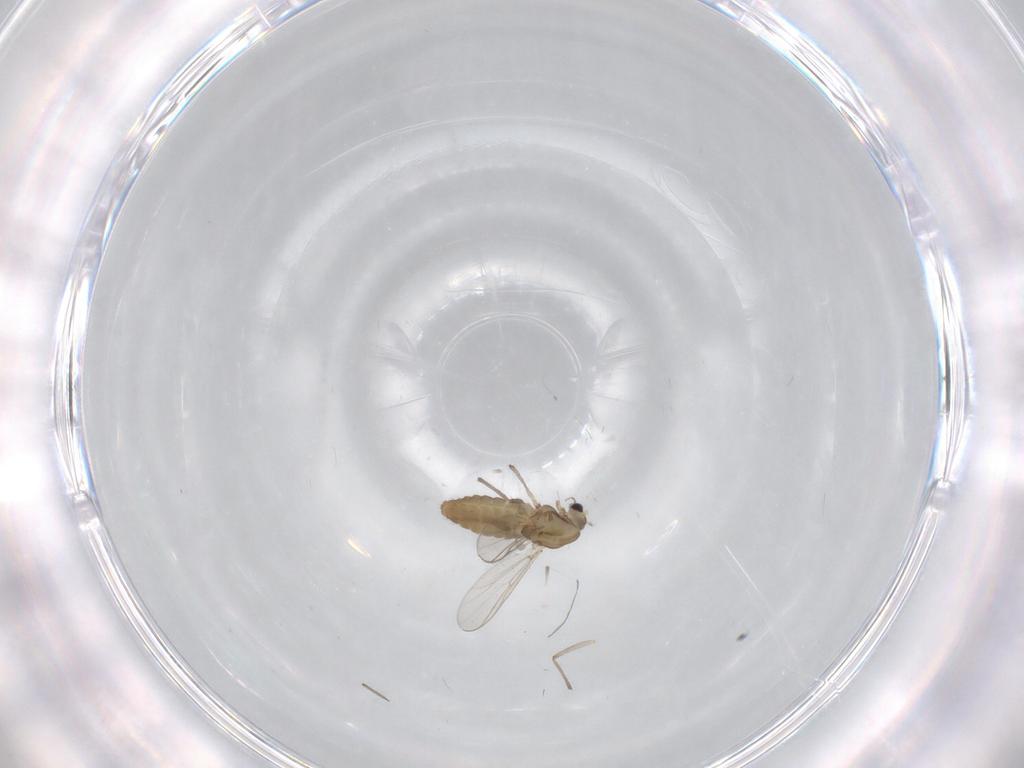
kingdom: Animalia
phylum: Arthropoda
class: Insecta
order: Diptera
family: Chironomidae
